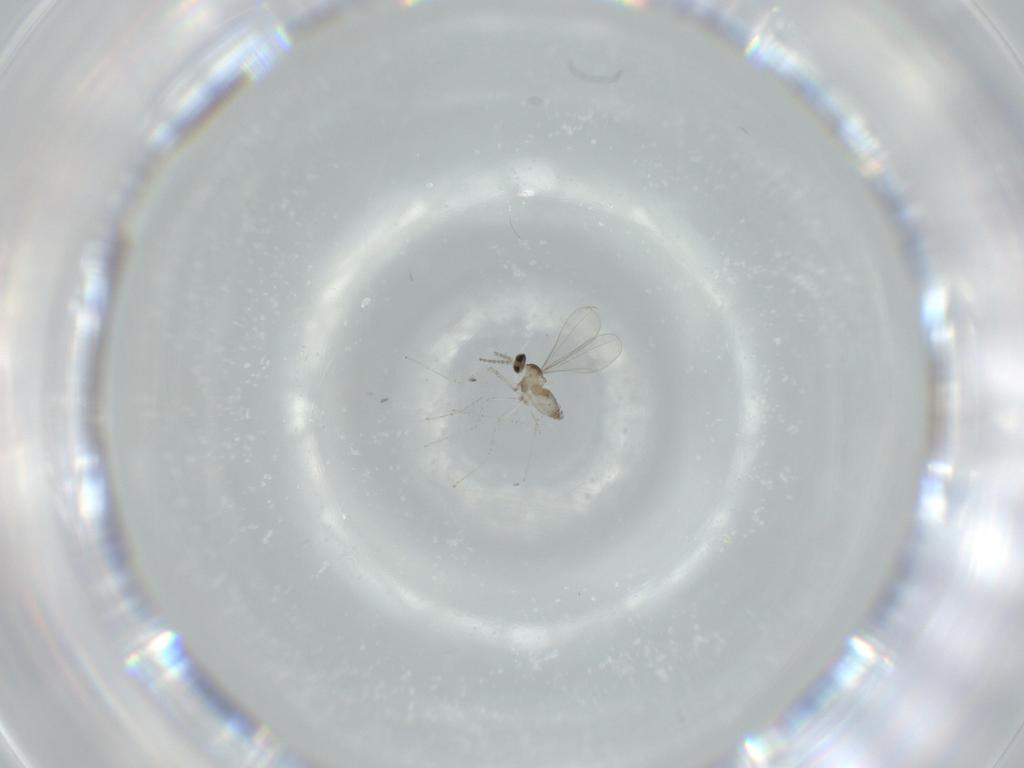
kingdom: Animalia
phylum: Arthropoda
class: Insecta
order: Diptera
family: Cecidomyiidae
